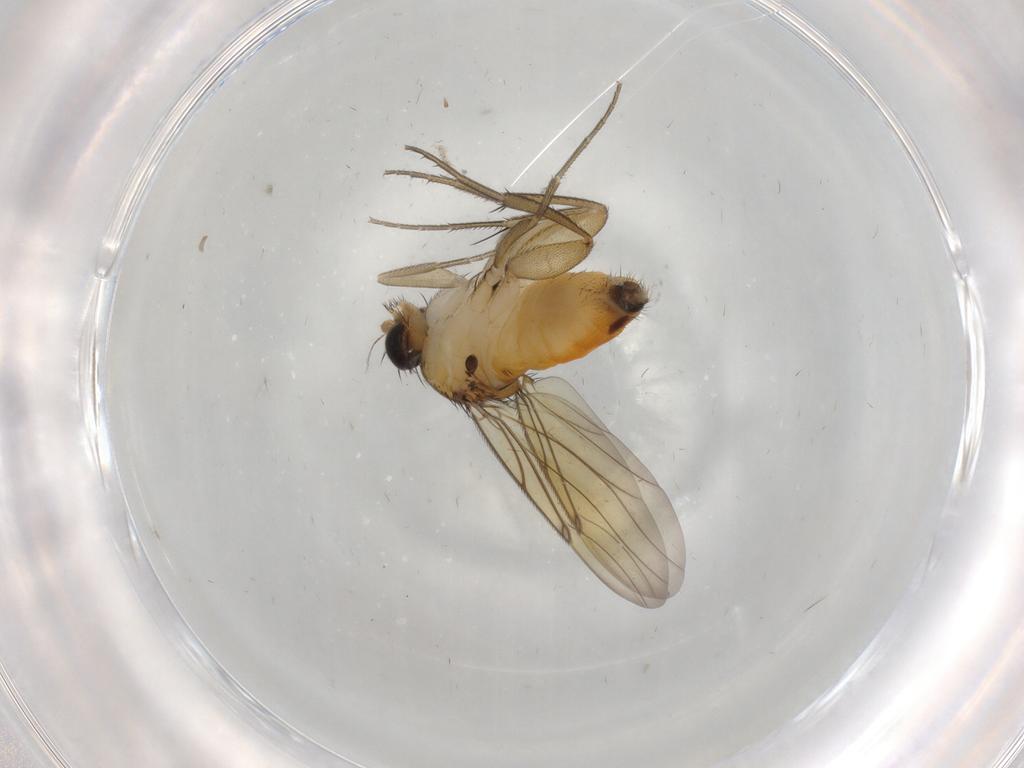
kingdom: Animalia
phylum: Arthropoda
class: Insecta
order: Diptera
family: Phoridae
